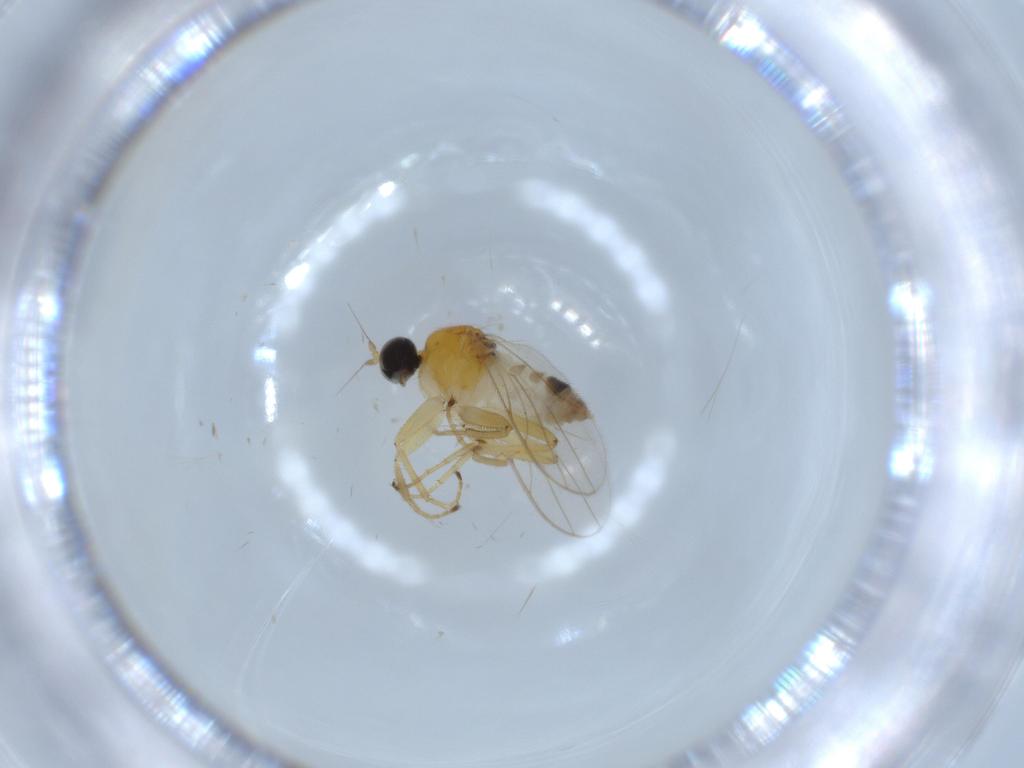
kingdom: Animalia
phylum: Arthropoda
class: Insecta
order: Diptera
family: Hybotidae
